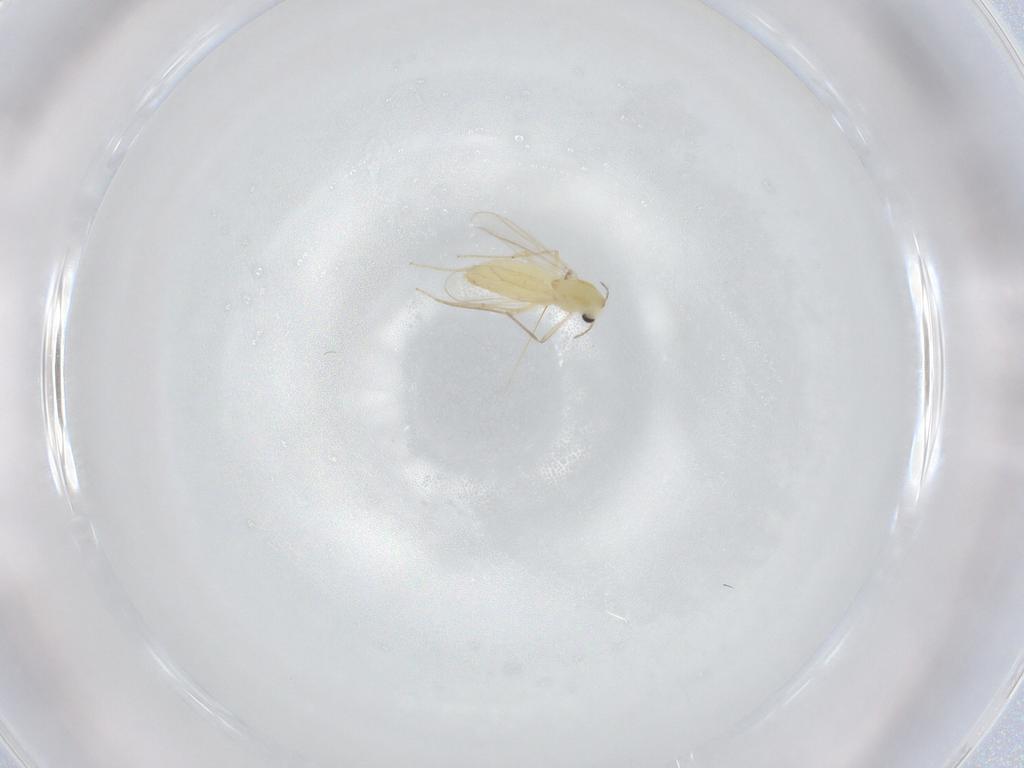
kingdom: Animalia
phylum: Arthropoda
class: Insecta
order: Diptera
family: Chironomidae
